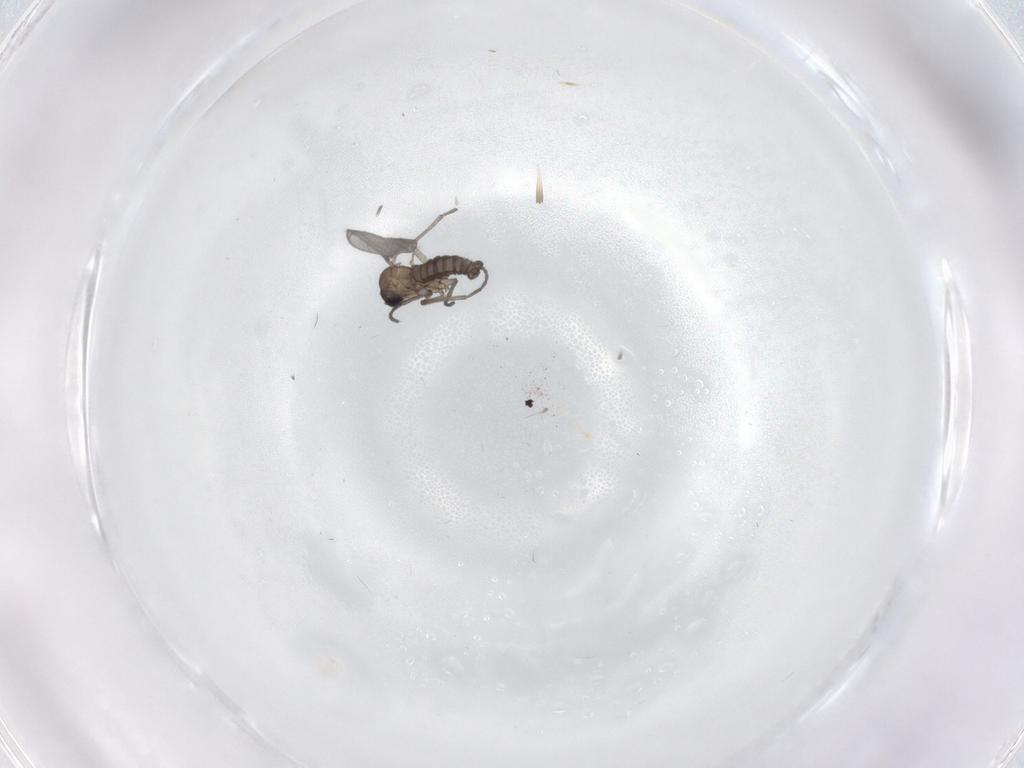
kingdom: Animalia
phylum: Arthropoda
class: Insecta
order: Diptera
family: Sciaridae
